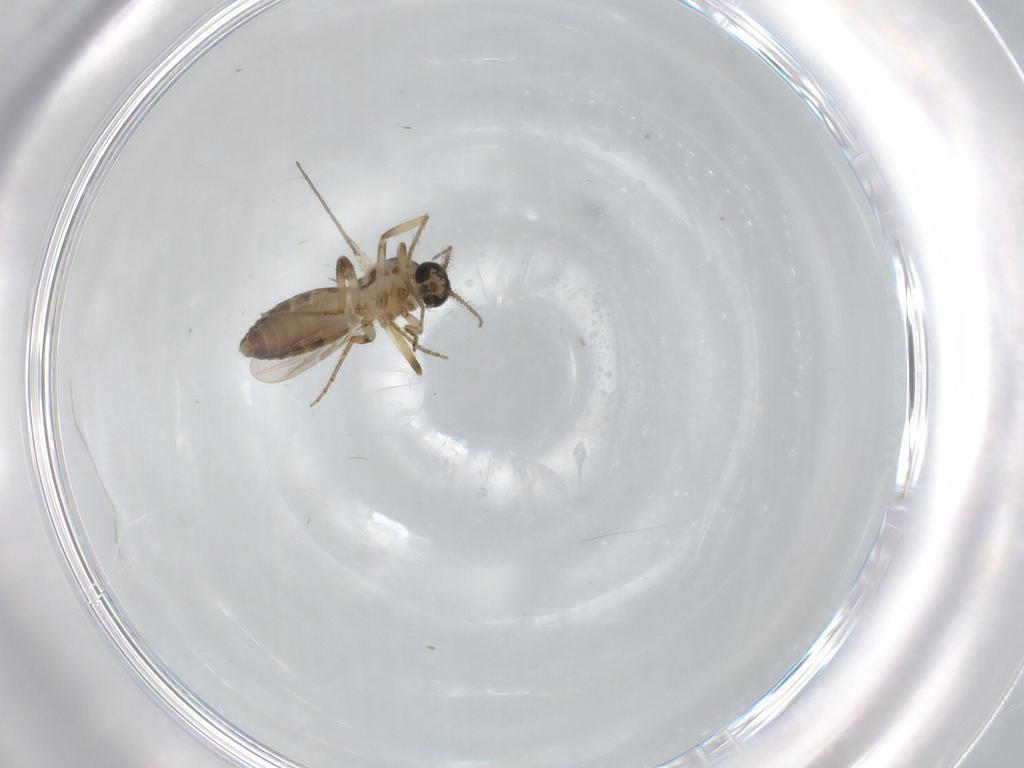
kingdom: Animalia
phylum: Arthropoda
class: Insecta
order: Diptera
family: Ceratopogonidae
